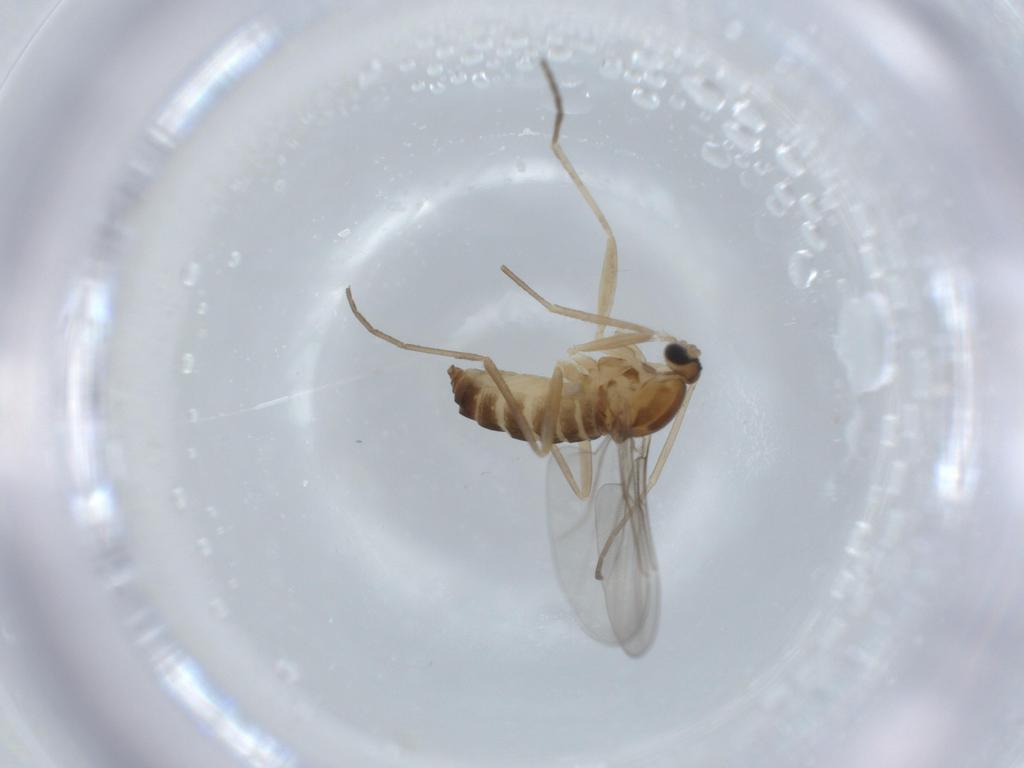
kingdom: Animalia
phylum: Arthropoda
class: Insecta
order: Diptera
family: Cecidomyiidae
